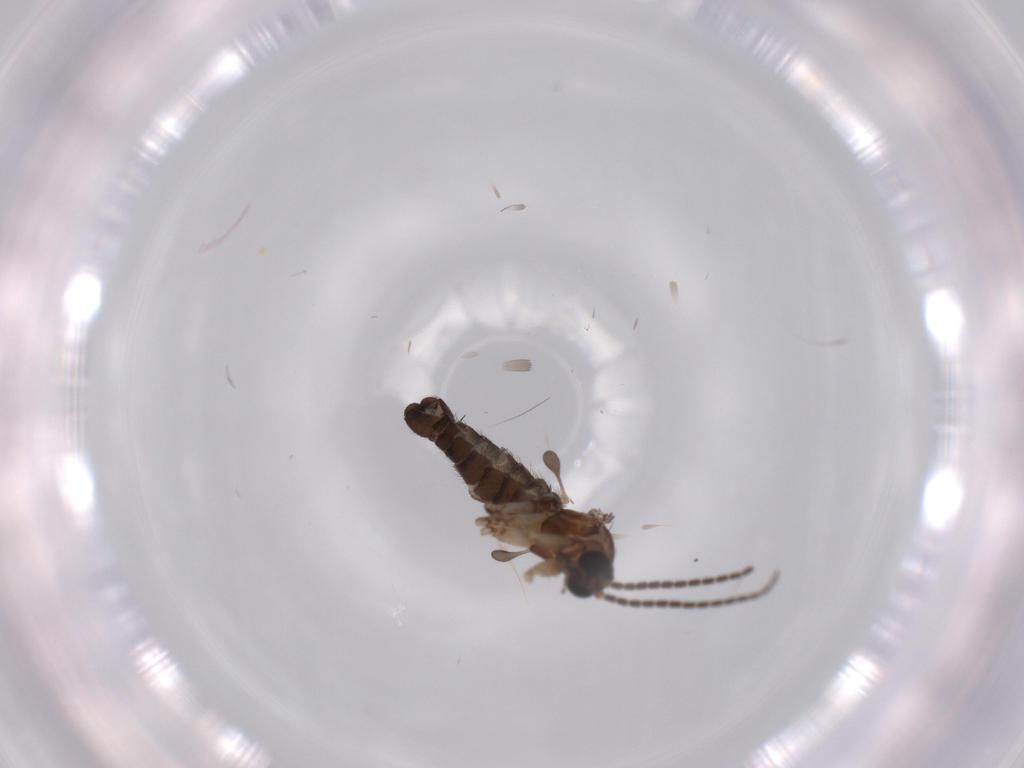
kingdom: Animalia
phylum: Arthropoda
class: Insecta
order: Diptera
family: Sciaridae
